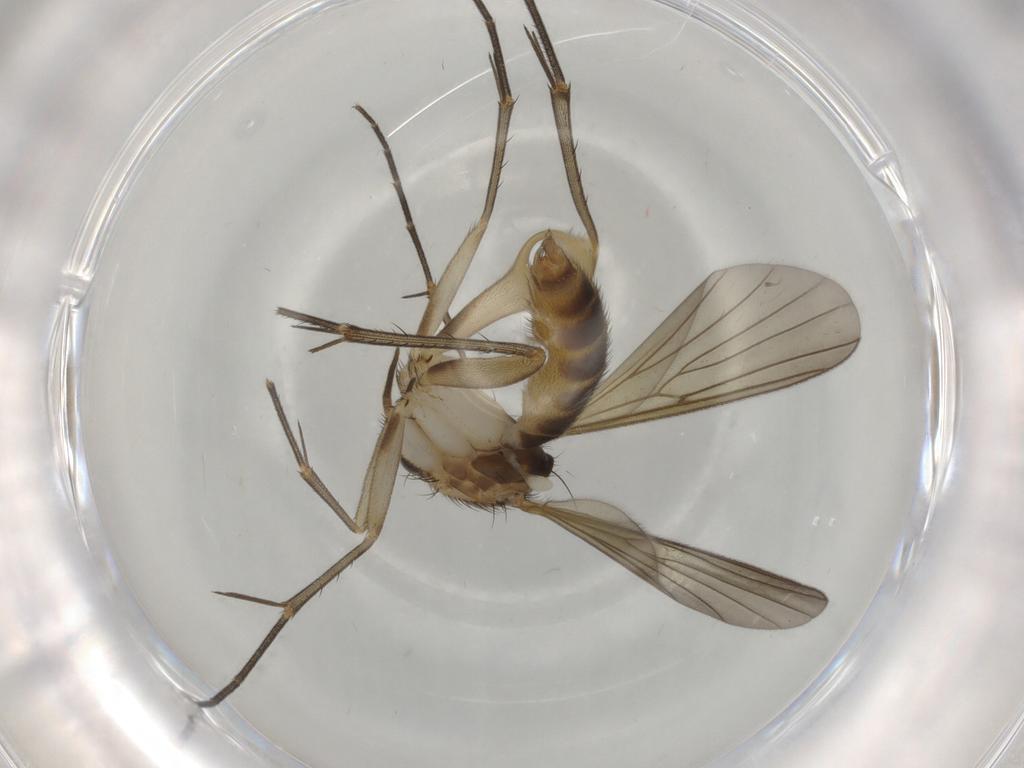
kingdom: Animalia
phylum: Arthropoda
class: Insecta
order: Diptera
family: Mycetophilidae
